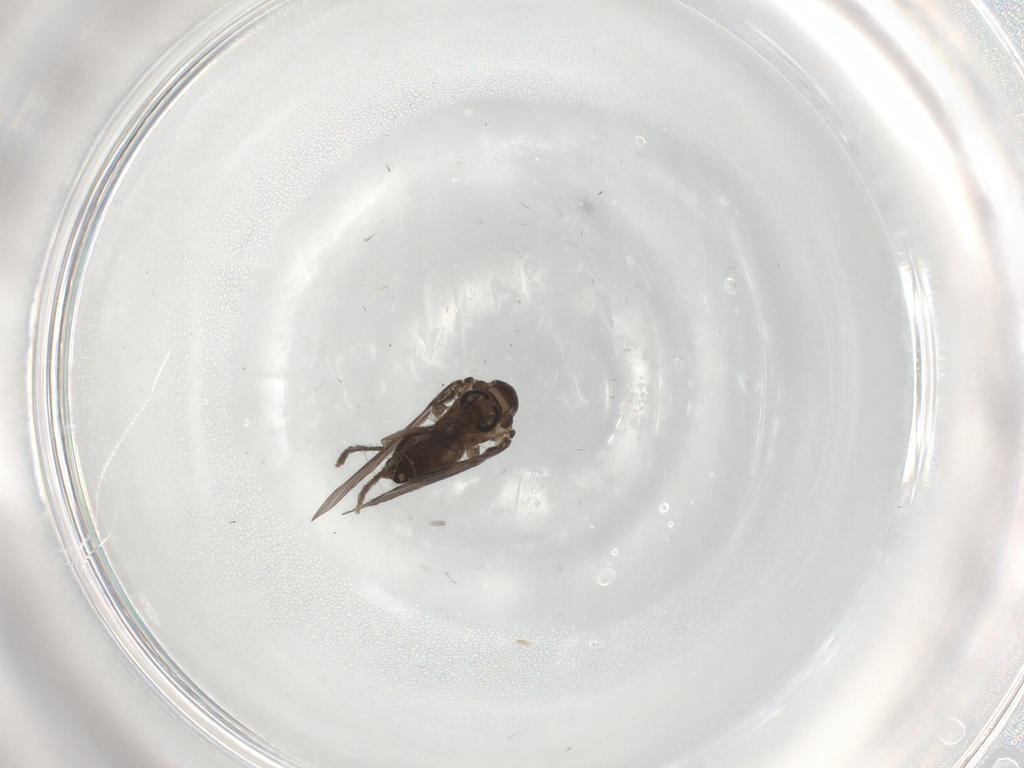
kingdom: Animalia
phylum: Arthropoda
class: Insecta
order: Diptera
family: Psychodidae
